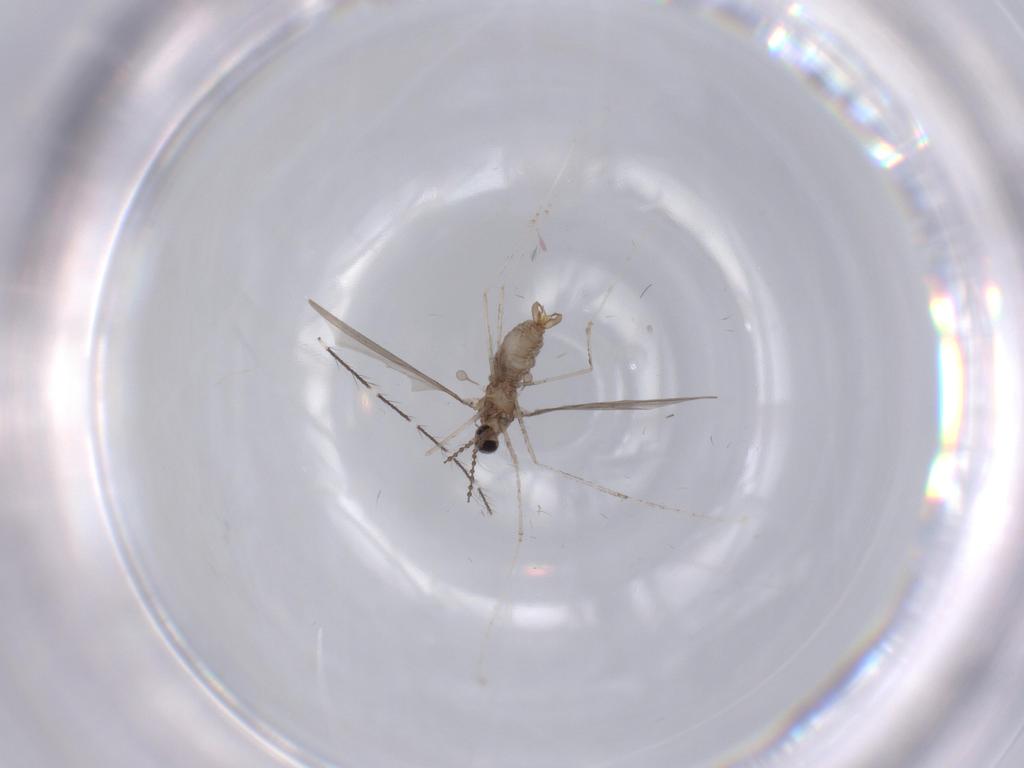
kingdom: Animalia
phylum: Arthropoda
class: Insecta
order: Diptera
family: Cecidomyiidae
